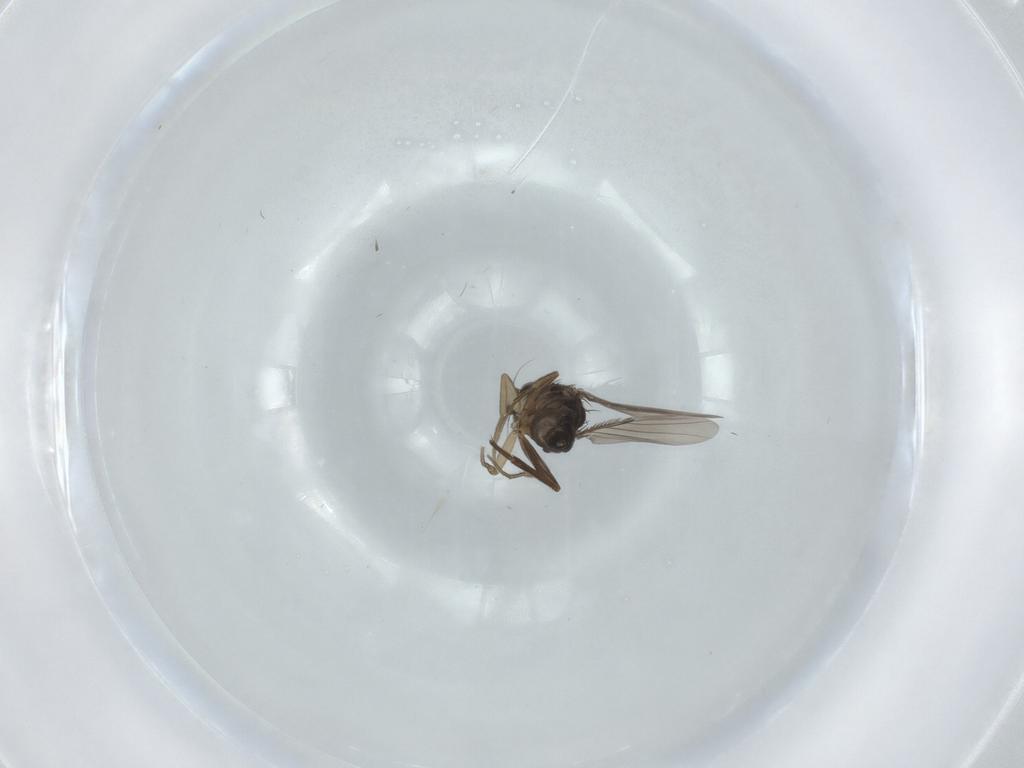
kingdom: Animalia
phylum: Arthropoda
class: Insecta
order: Diptera
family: Phoridae
